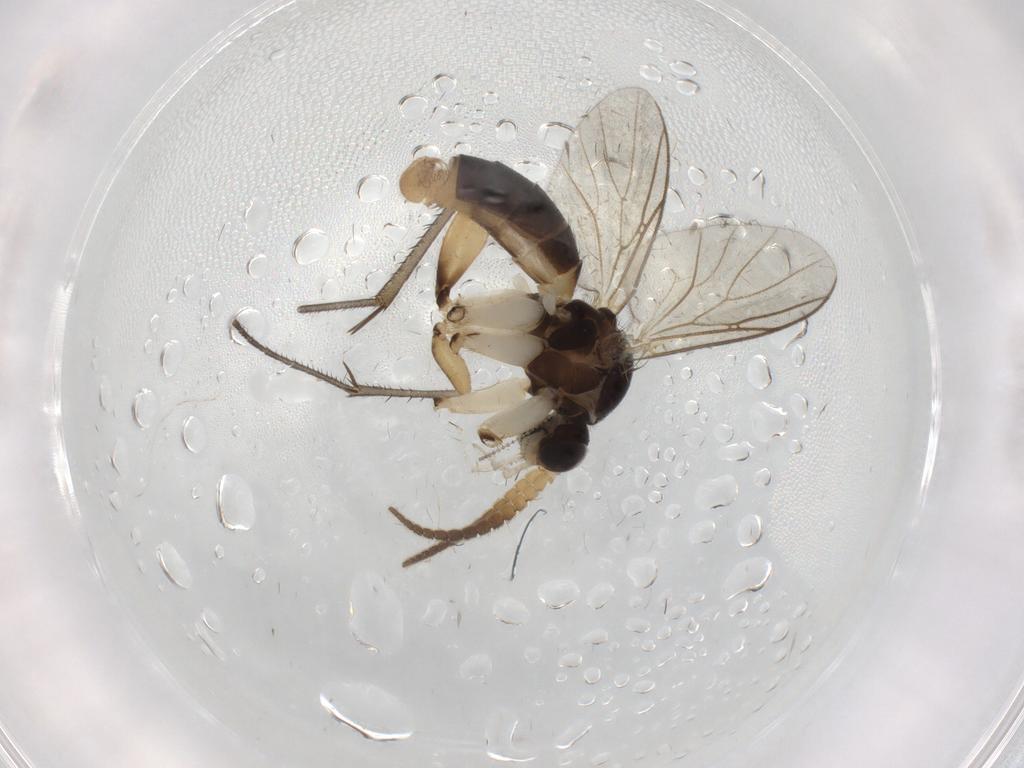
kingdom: Animalia
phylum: Arthropoda
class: Insecta
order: Diptera
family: Mycetophilidae
